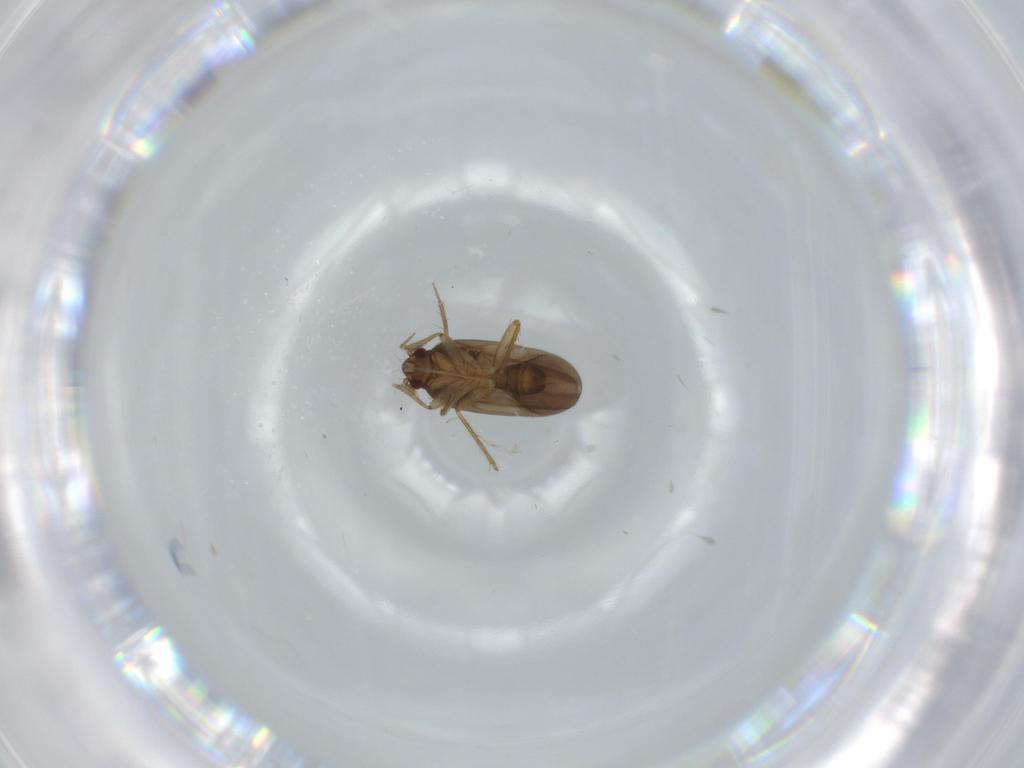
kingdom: Animalia
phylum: Arthropoda
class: Insecta
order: Hemiptera
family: Ceratocombidae
